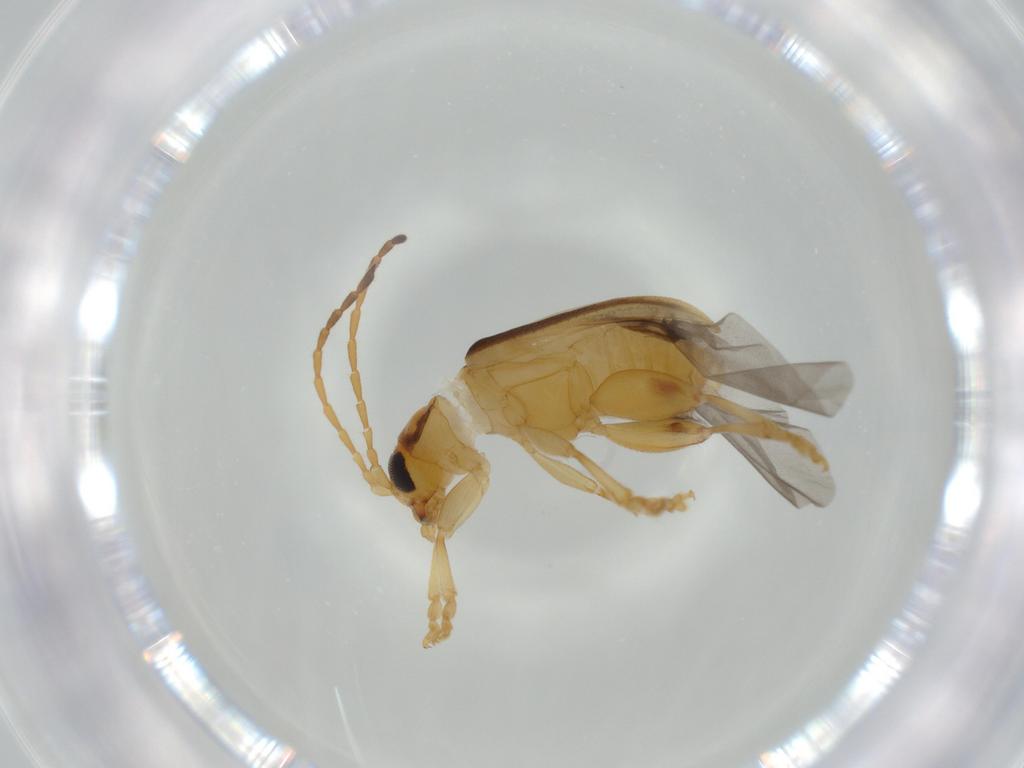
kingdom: Animalia
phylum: Arthropoda
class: Insecta
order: Coleoptera
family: Chrysomelidae
